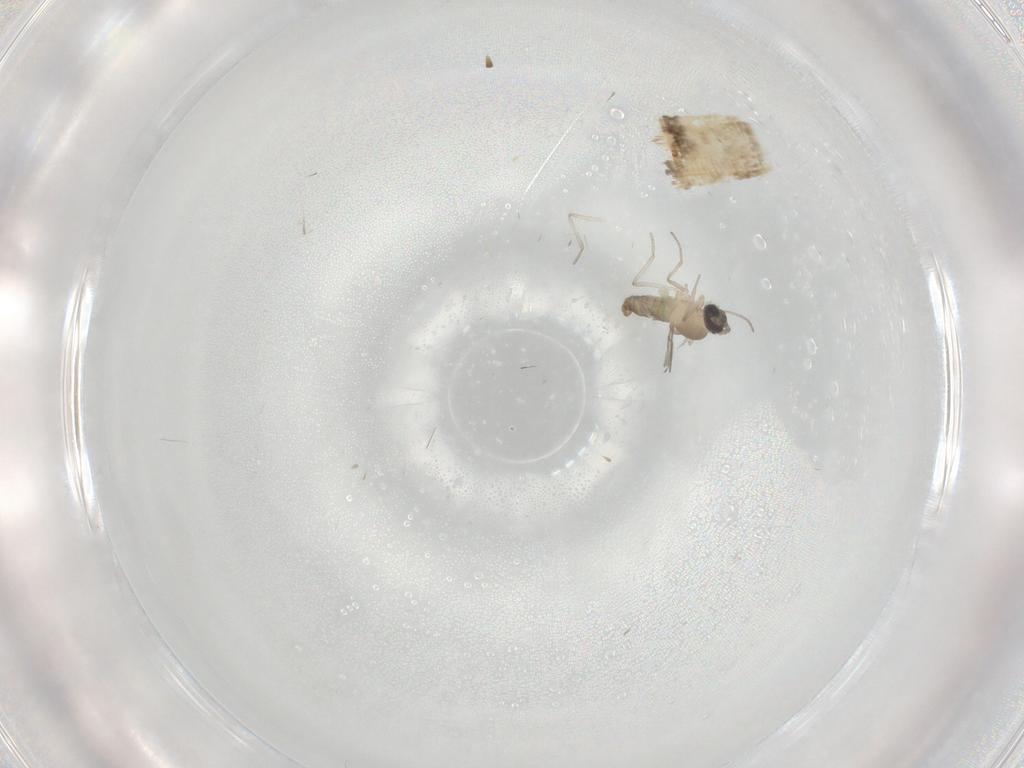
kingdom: Animalia
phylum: Arthropoda
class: Insecta
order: Diptera
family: Cecidomyiidae
